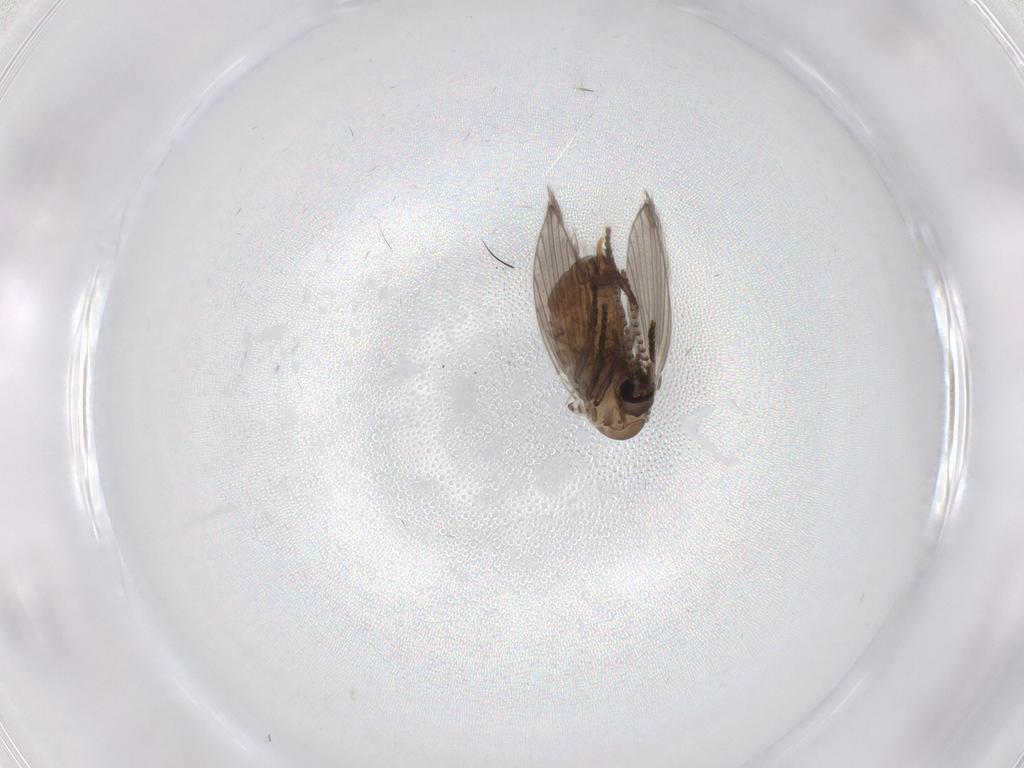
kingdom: Animalia
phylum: Arthropoda
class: Insecta
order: Diptera
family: Psychodidae
